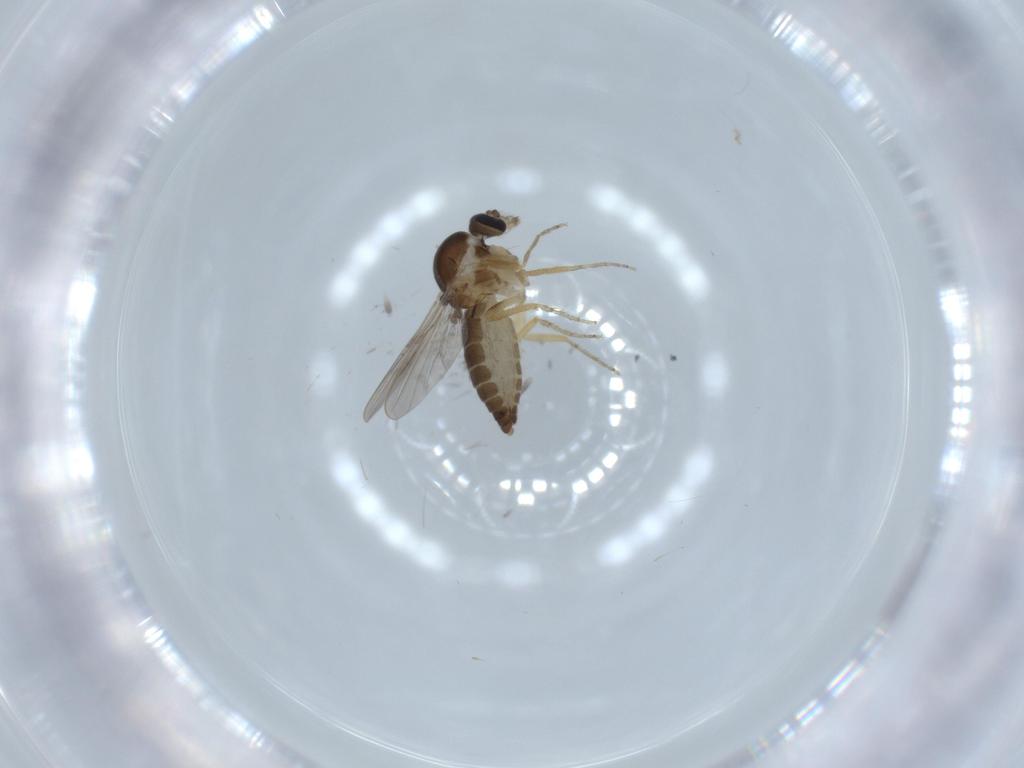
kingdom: Animalia
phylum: Arthropoda
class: Insecta
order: Diptera
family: Ceratopogonidae
